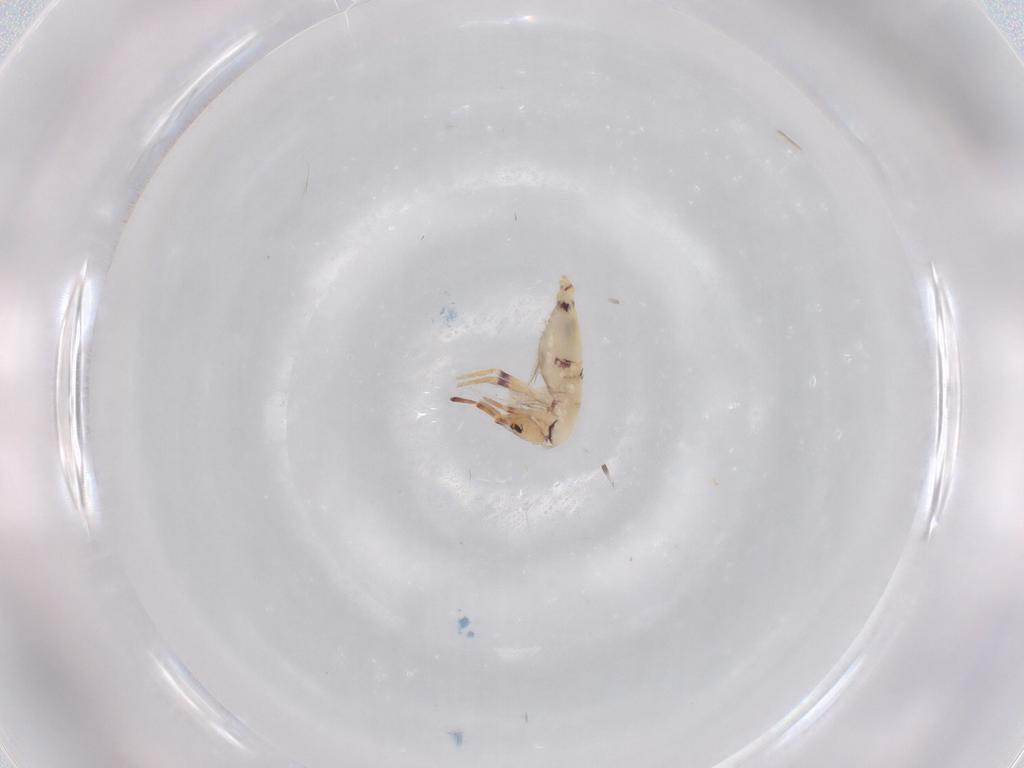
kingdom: Animalia
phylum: Arthropoda
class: Collembola
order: Entomobryomorpha
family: Entomobryidae
